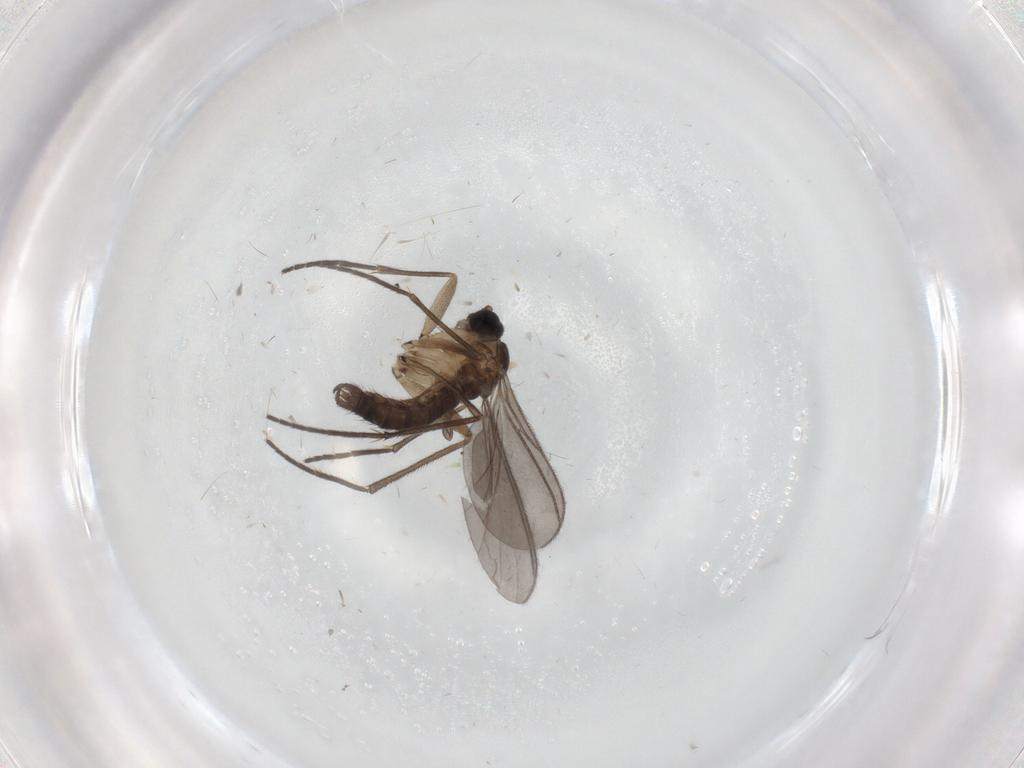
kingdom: Animalia
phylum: Arthropoda
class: Insecta
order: Diptera
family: Sciaridae
